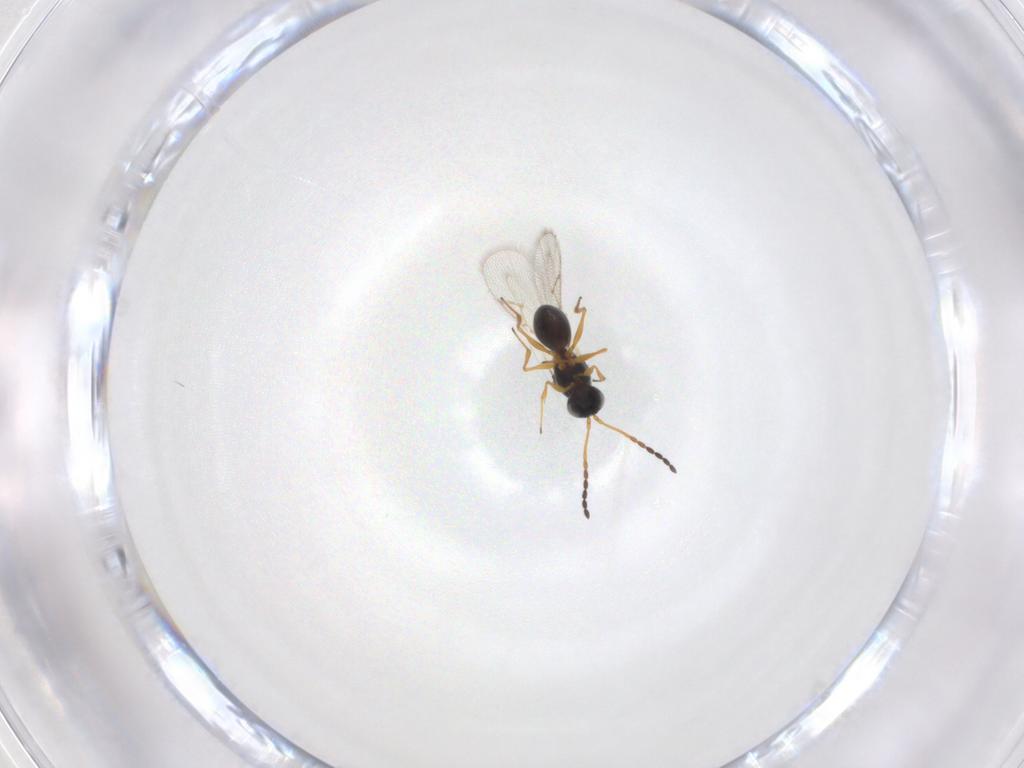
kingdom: Animalia
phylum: Arthropoda
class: Insecta
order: Hymenoptera
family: Figitidae
